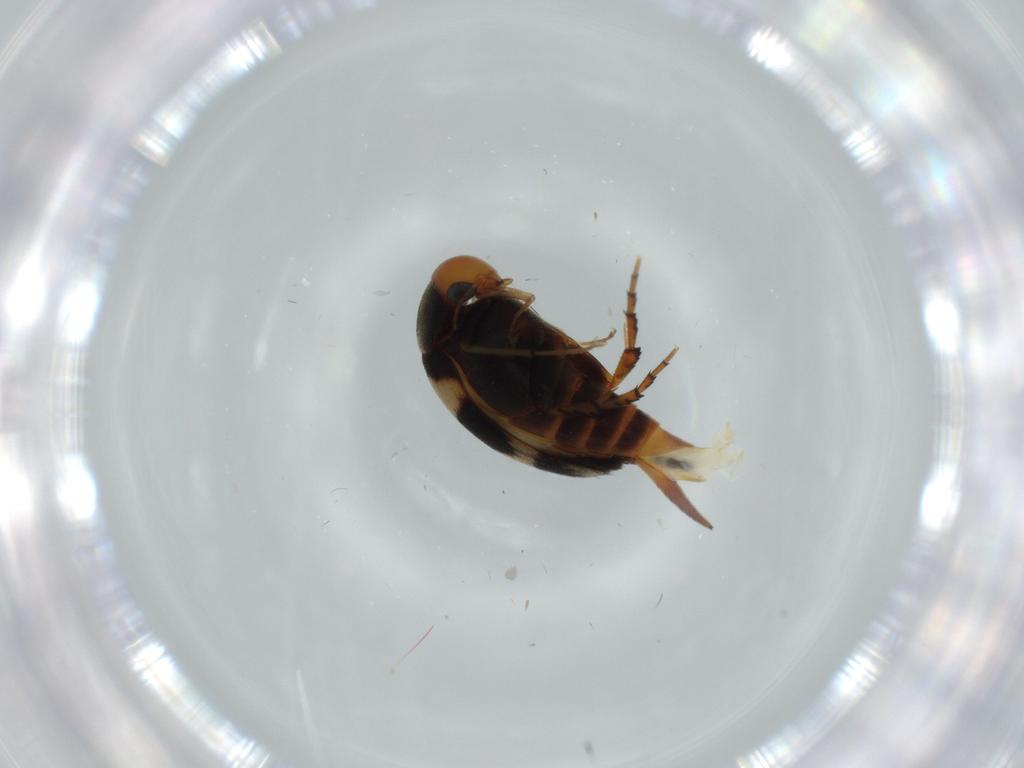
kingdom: Animalia
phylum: Arthropoda
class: Insecta
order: Coleoptera
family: Mordellidae
